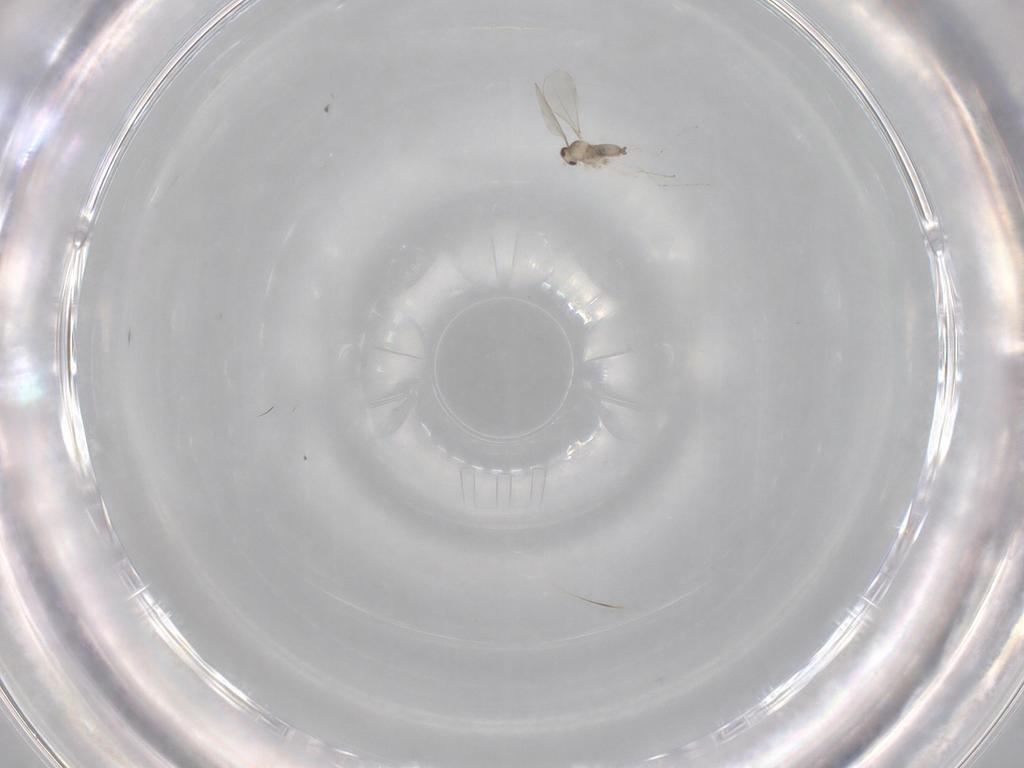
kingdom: Animalia
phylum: Arthropoda
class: Insecta
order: Diptera
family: Cecidomyiidae
